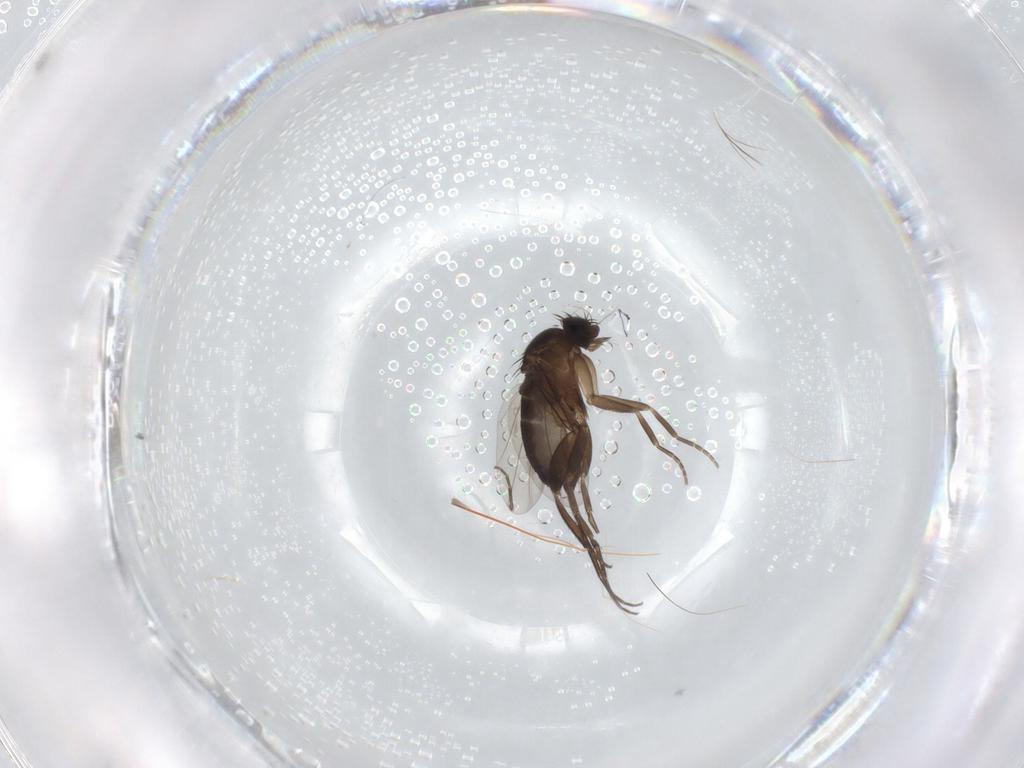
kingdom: Animalia
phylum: Arthropoda
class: Insecta
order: Diptera
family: Phoridae
